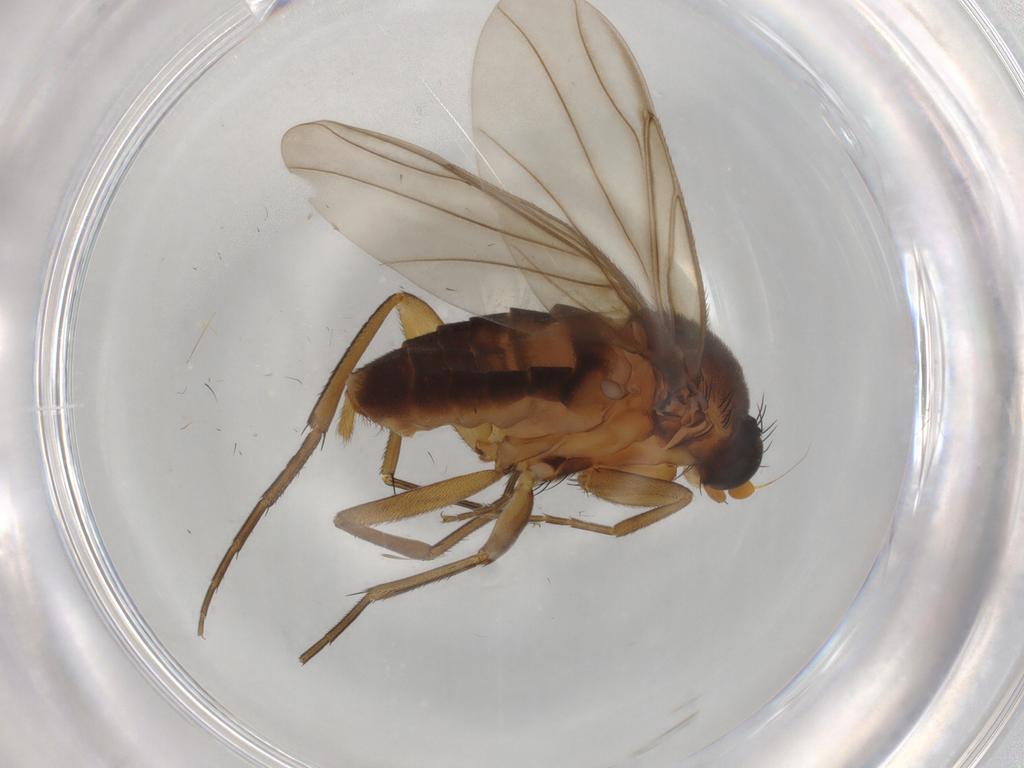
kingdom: Animalia
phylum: Arthropoda
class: Insecta
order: Diptera
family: Phoridae
